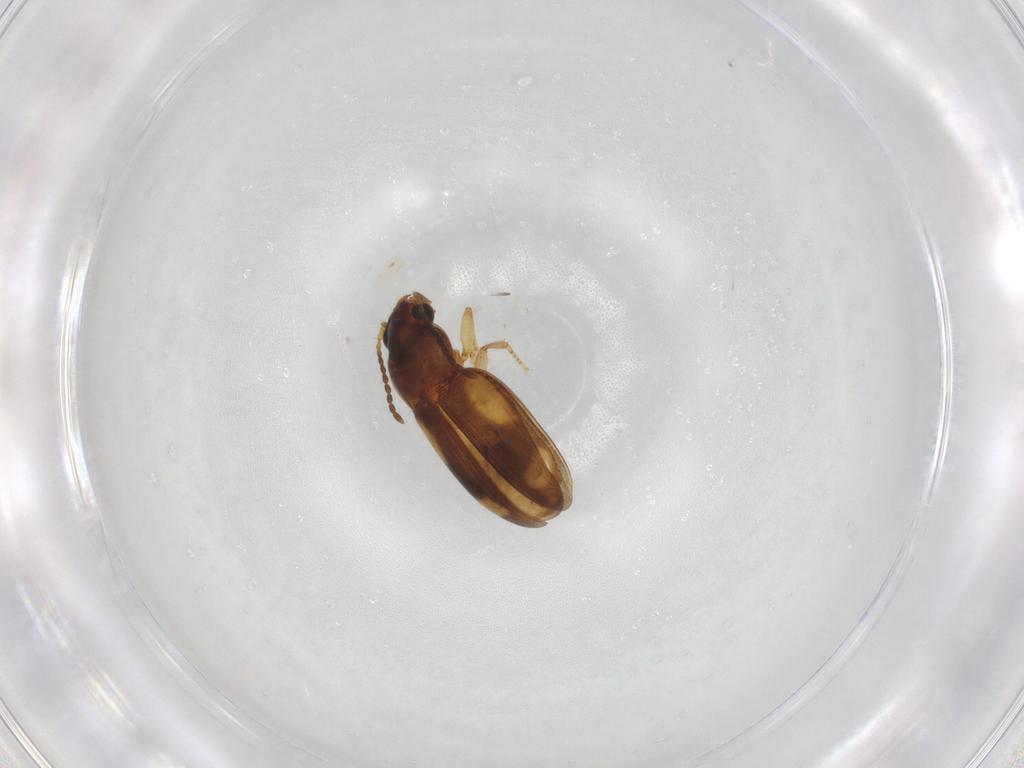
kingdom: Animalia
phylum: Arthropoda
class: Insecta
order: Coleoptera
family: Carabidae
